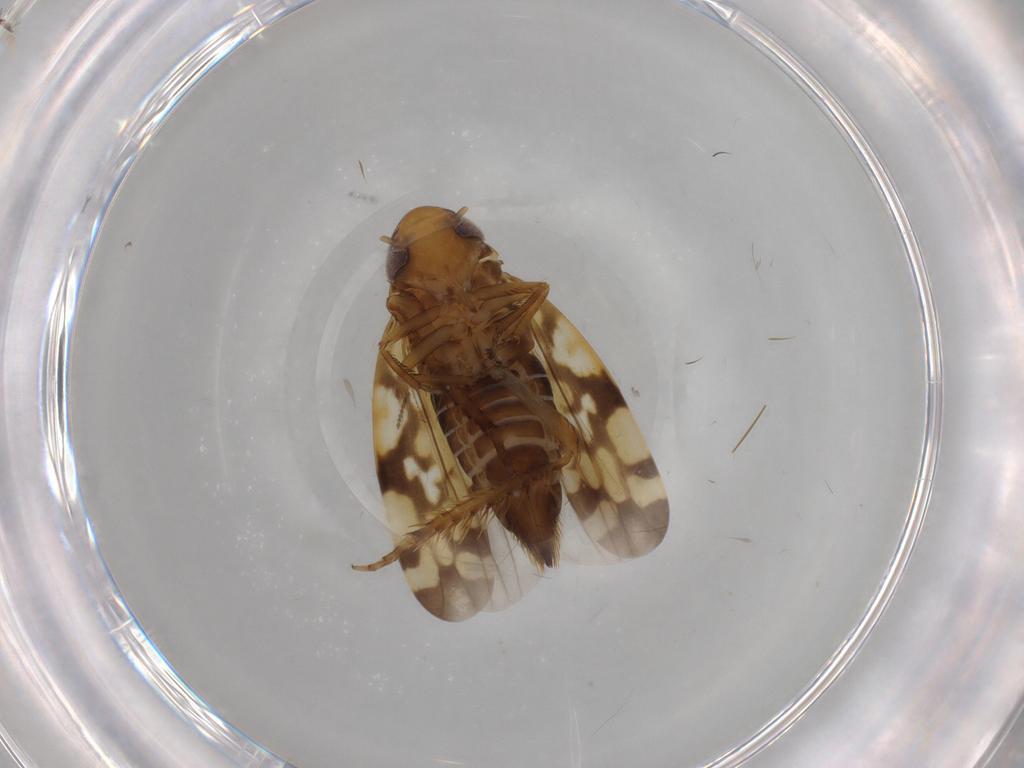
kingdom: Animalia
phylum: Arthropoda
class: Insecta
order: Hemiptera
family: Cicadellidae
